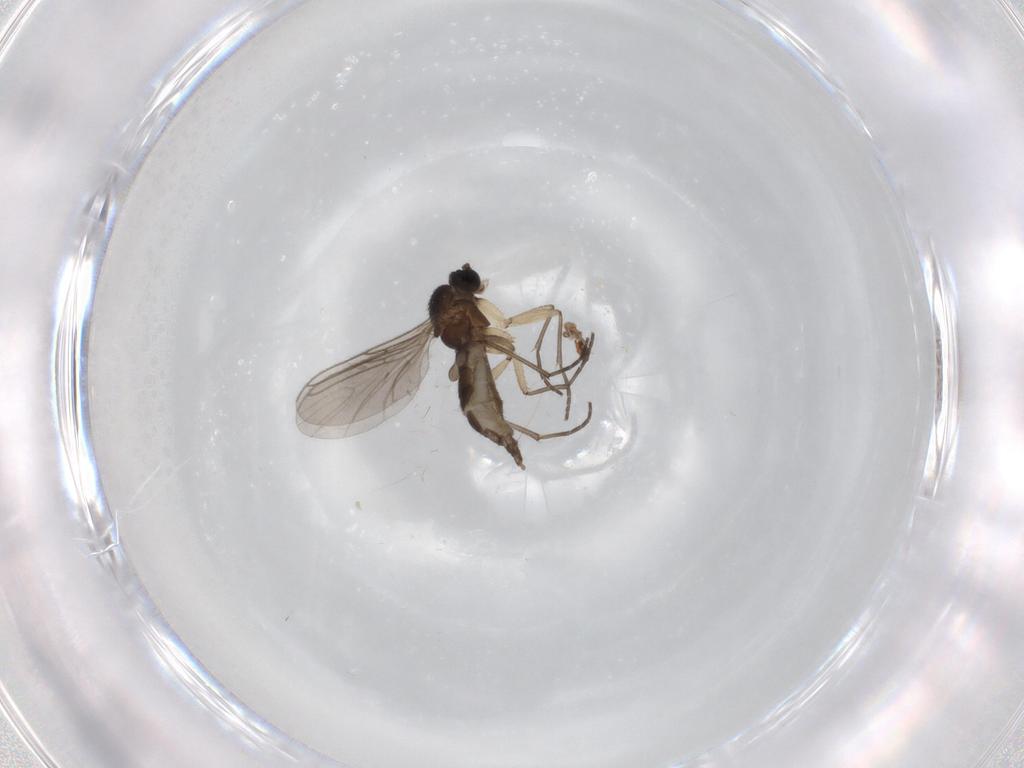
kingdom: Animalia
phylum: Arthropoda
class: Insecta
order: Diptera
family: Sciaridae
